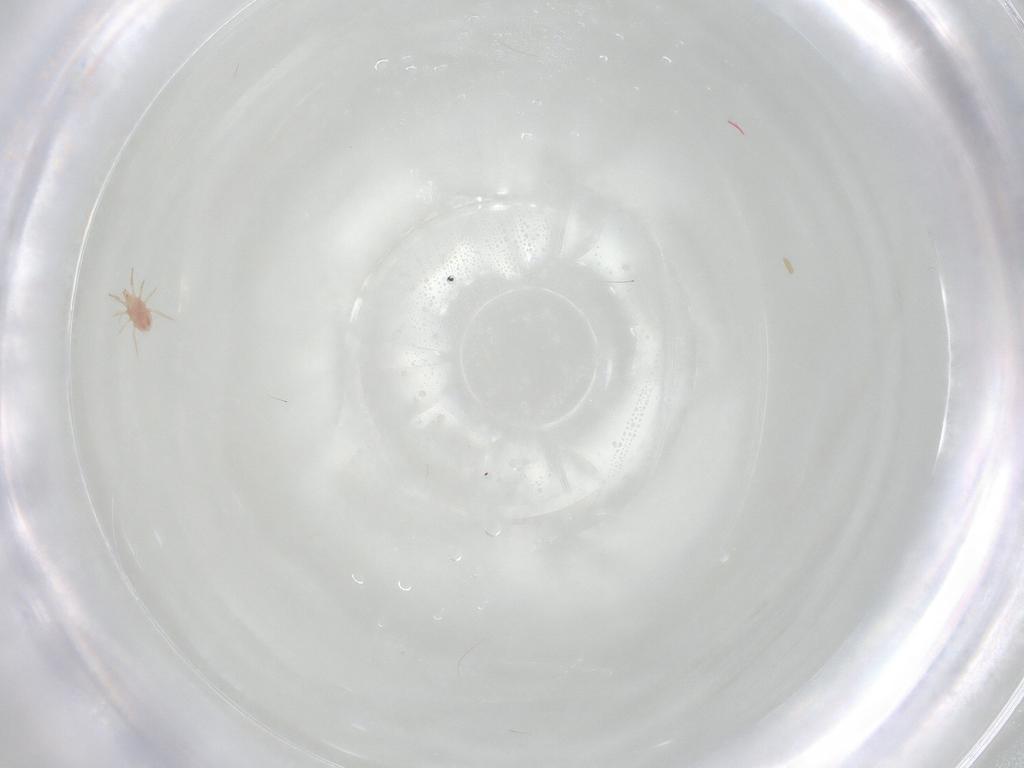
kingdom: Animalia
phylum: Arthropoda
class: Arachnida
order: Mesostigmata
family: Phytoseiidae
